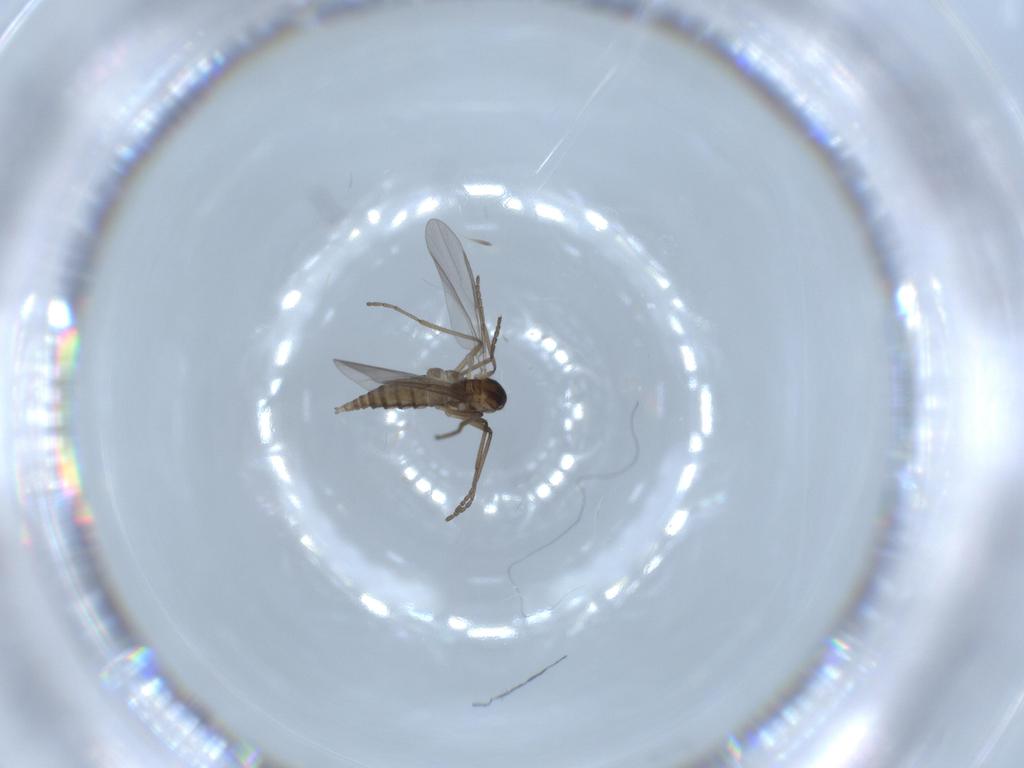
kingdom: Animalia
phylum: Arthropoda
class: Insecta
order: Diptera
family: Cecidomyiidae
